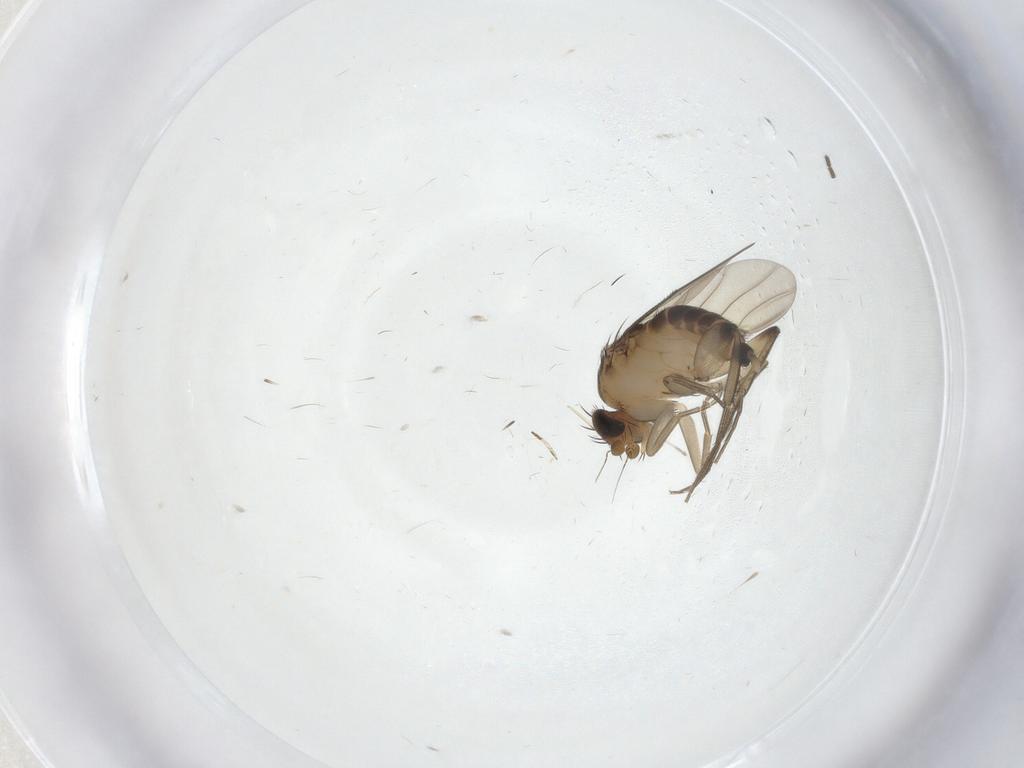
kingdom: Animalia
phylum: Arthropoda
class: Insecta
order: Diptera
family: Sciaridae
